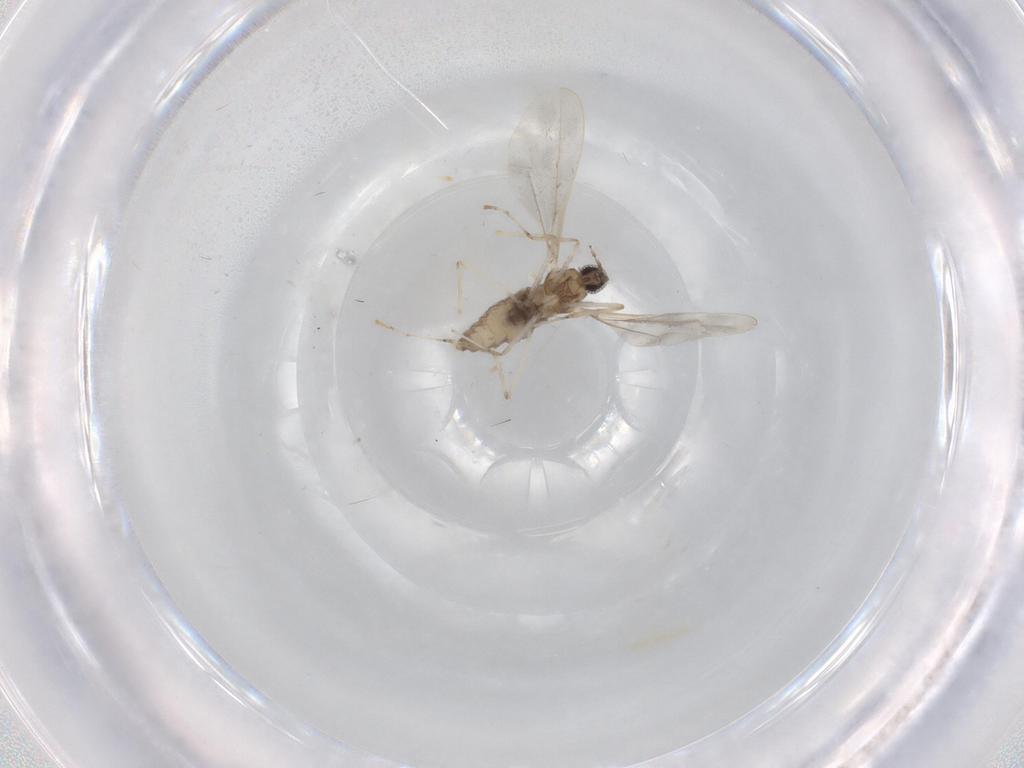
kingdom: Animalia
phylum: Arthropoda
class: Insecta
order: Diptera
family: Cecidomyiidae
